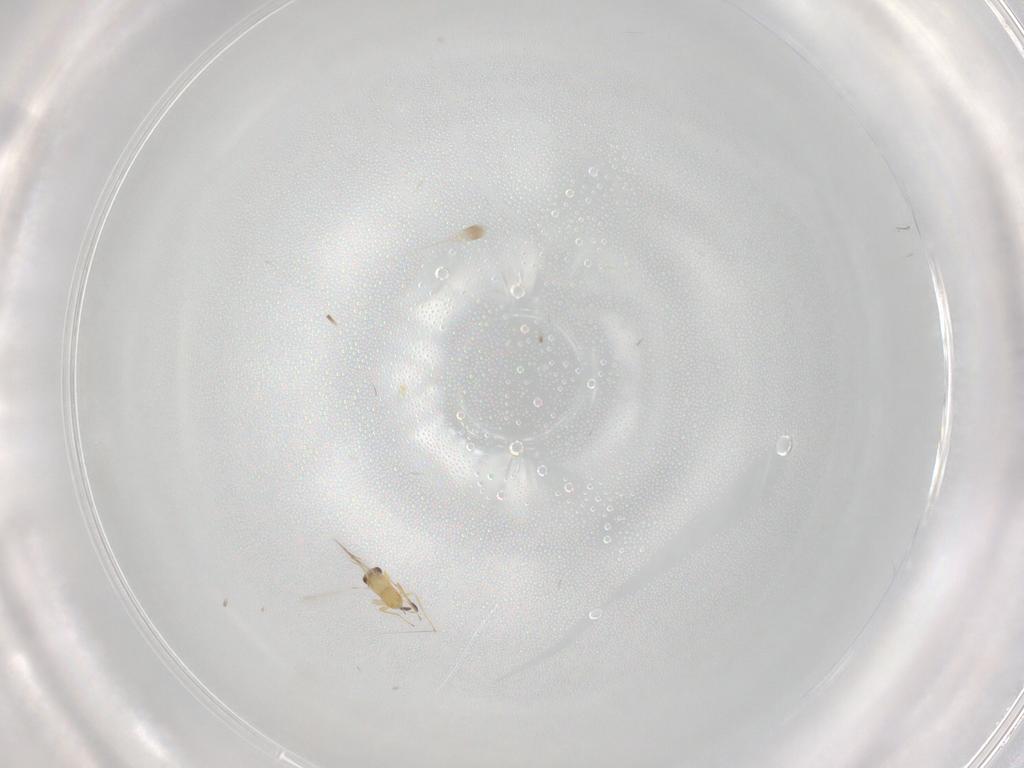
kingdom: Animalia
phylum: Arthropoda
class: Insecta
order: Hymenoptera
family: Mymaridae
